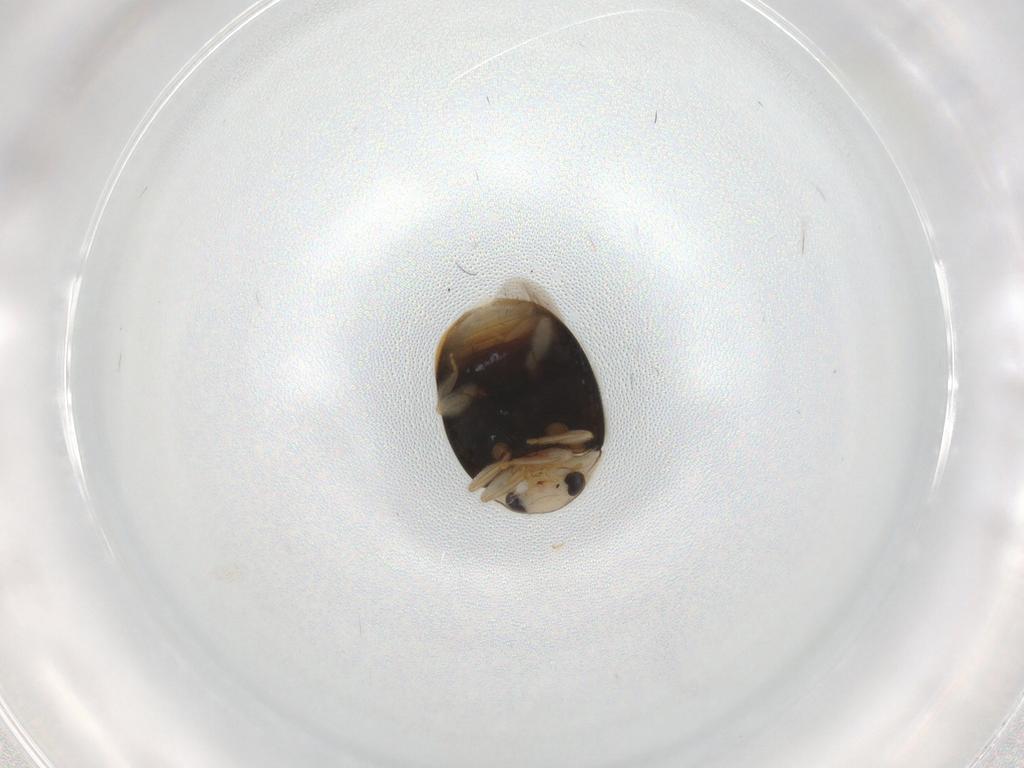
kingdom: Animalia
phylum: Arthropoda
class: Insecta
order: Coleoptera
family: Coccinellidae
